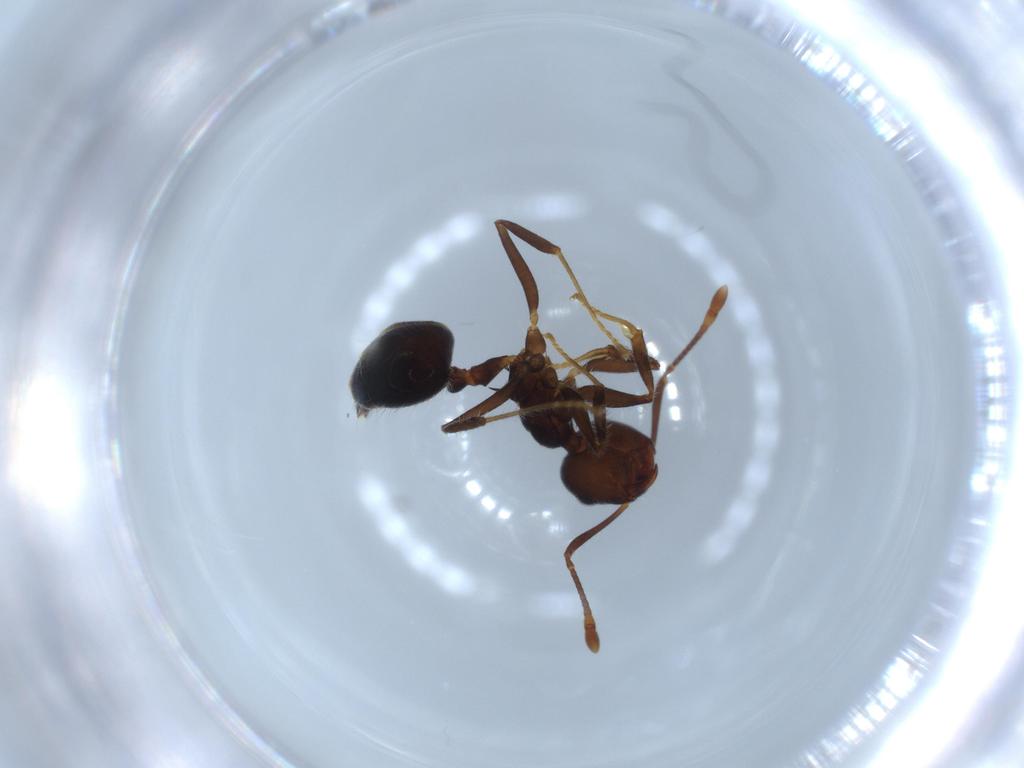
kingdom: Animalia
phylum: Arthropoda
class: Insecta
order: Hymenoptera
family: Formicidae
